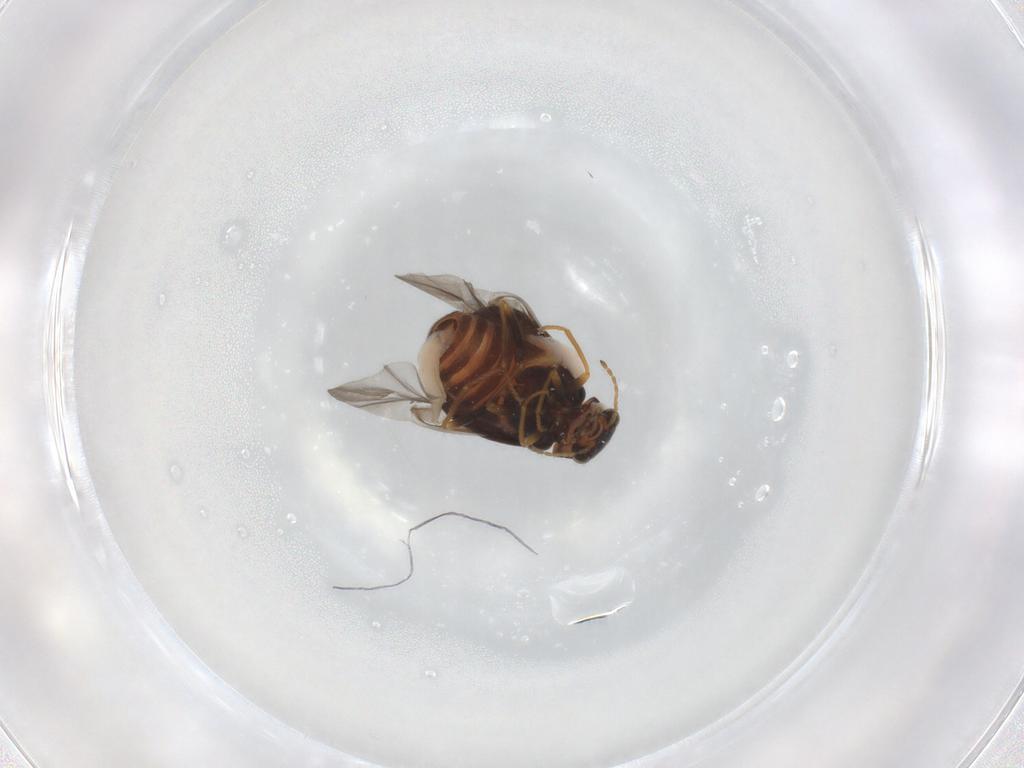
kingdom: Animalia
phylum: Arthropoda
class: Insecta
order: Coleoptera
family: Melyridae
